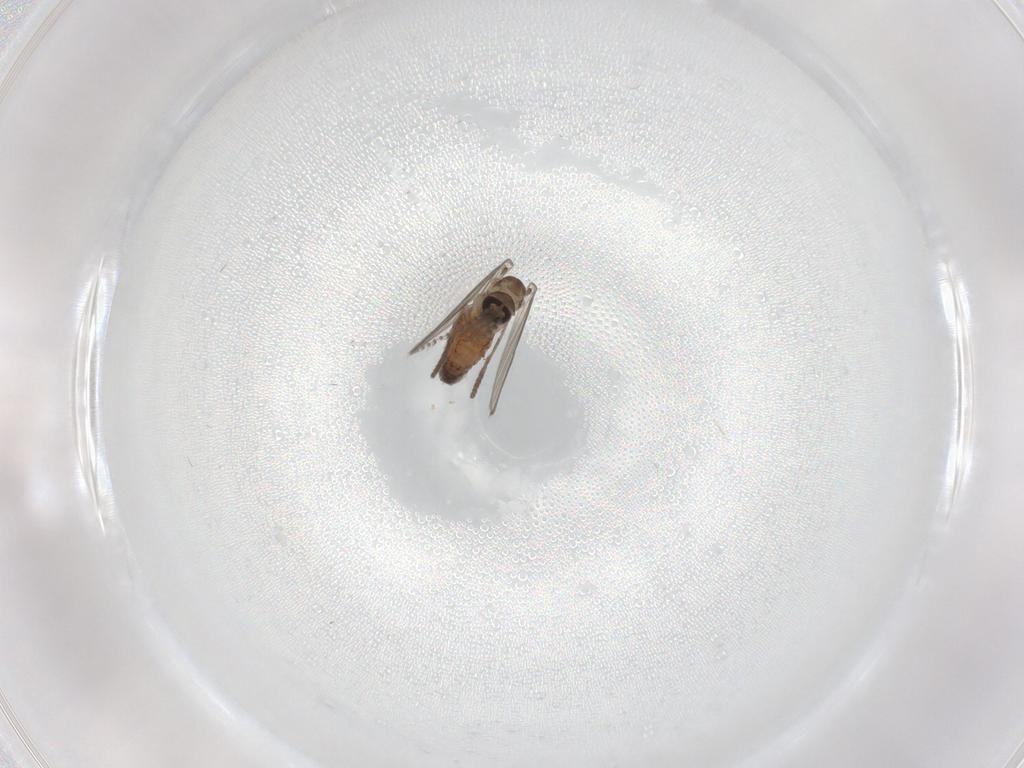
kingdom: Animalia
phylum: Arthropoda
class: Insecta
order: Diptera
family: Psychodidae
